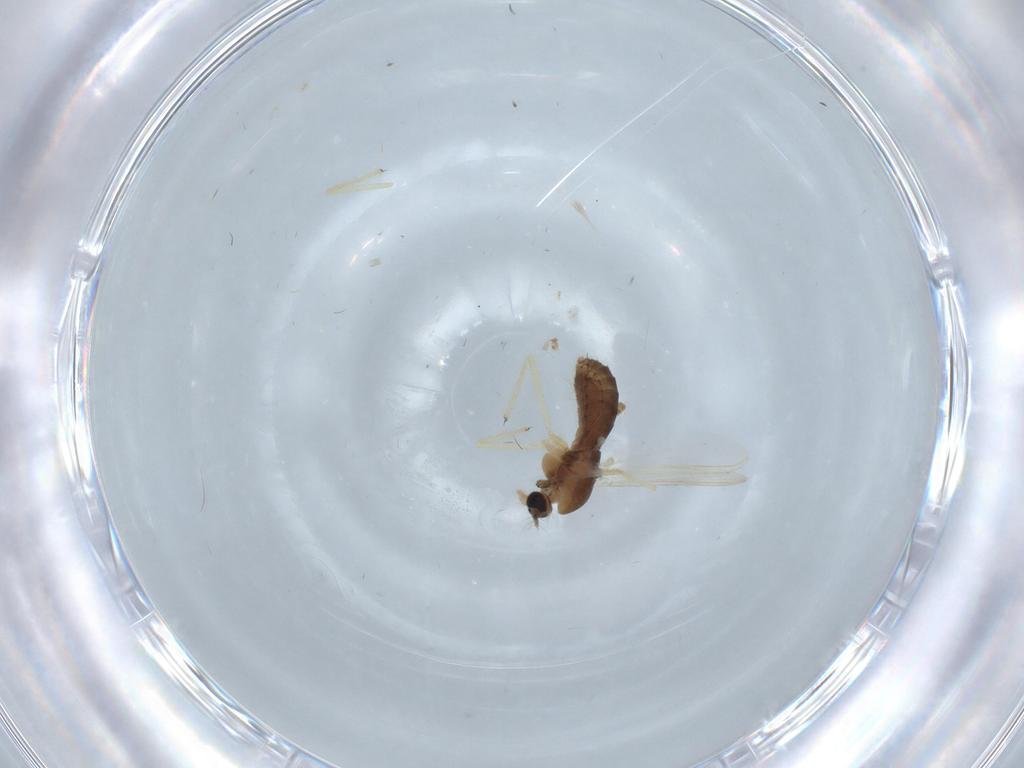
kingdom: Animalia
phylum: Arthropoda
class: Insecta
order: Diptera
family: Chironomidae
